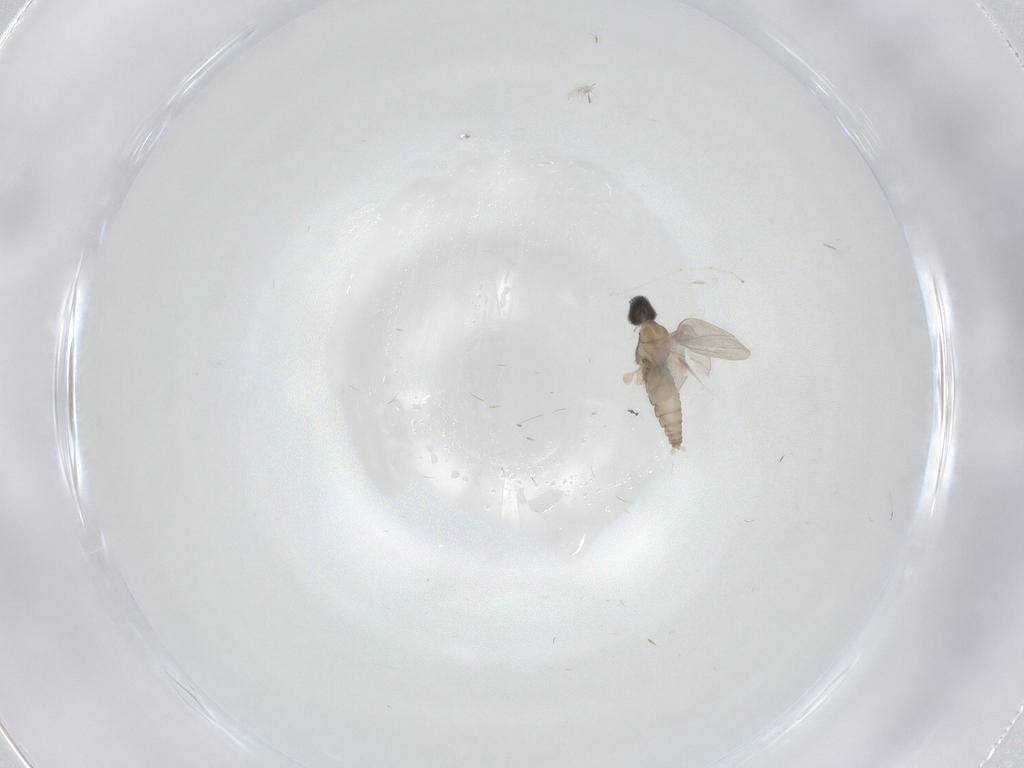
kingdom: Animalia
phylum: Arthropoda
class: Insecta
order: Diptera
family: Cecidomyiidae
